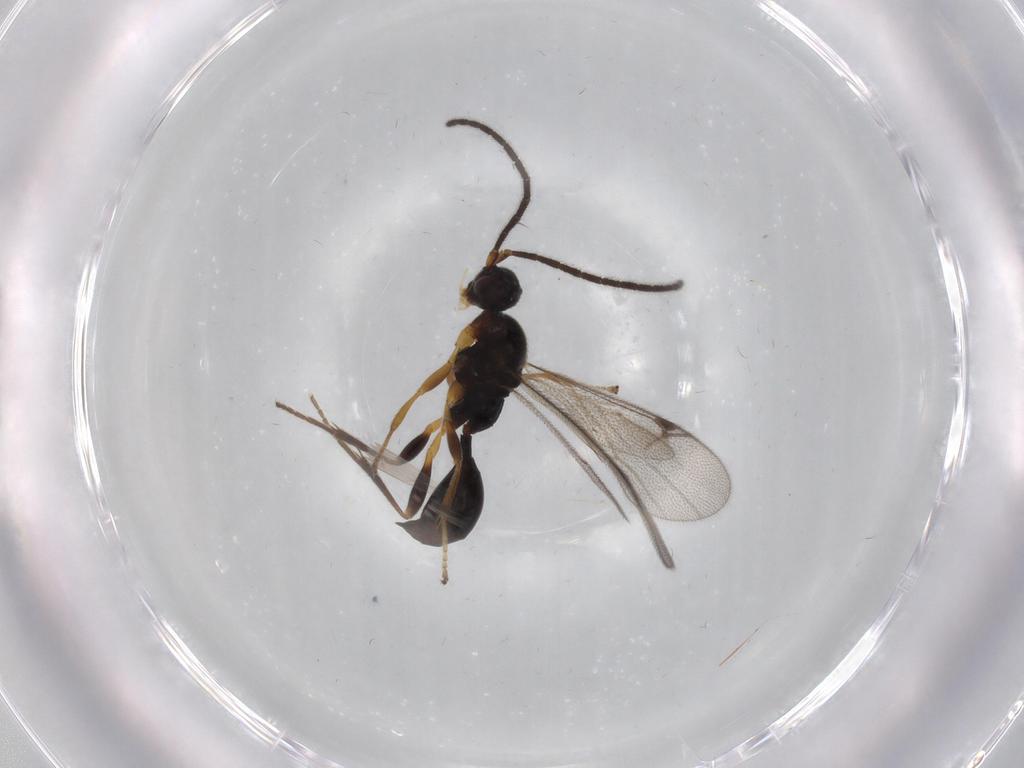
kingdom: Animalia
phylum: Arthropoda
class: Insecta
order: Hymenoptera
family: Proctotrupidae
